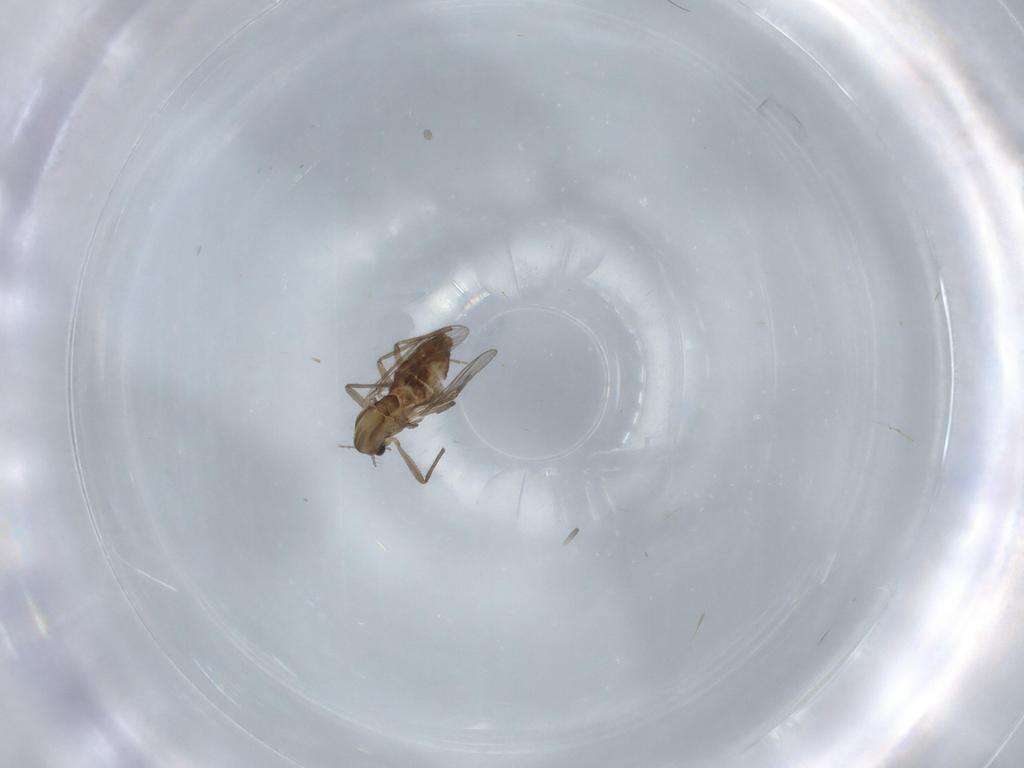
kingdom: Animalia
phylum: Arthropoda
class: Insecta
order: Diptera
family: Chironomidae
